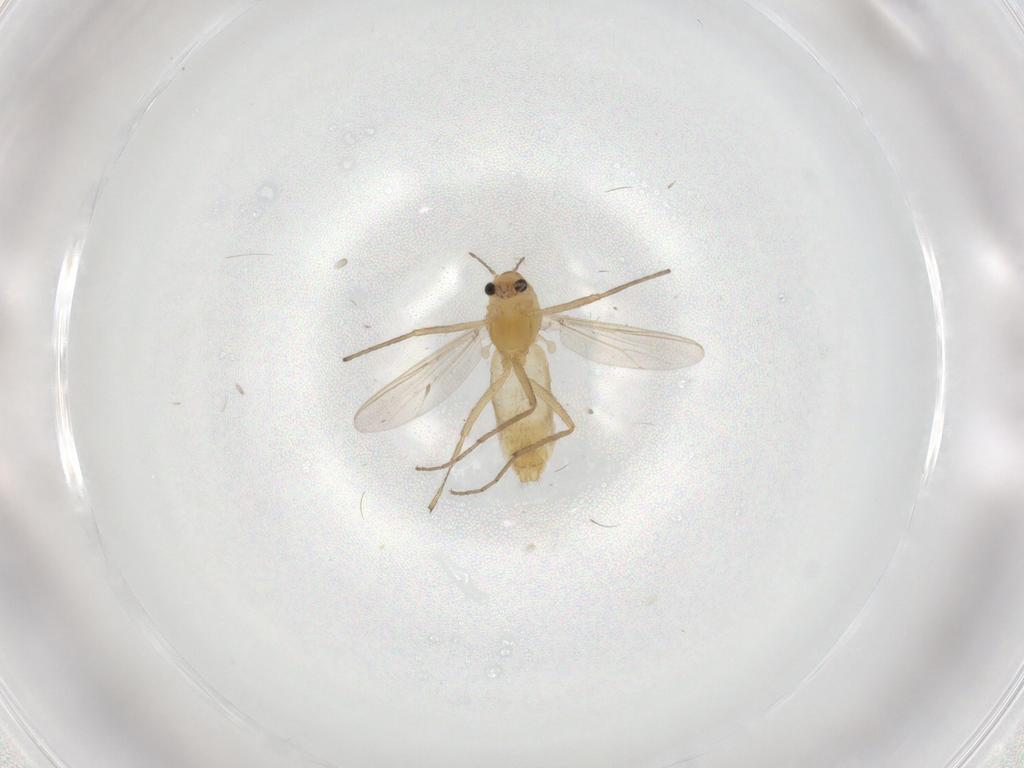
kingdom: Animalia
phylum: Arthropoda
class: Insecta
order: Diptera
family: Chironomidae
